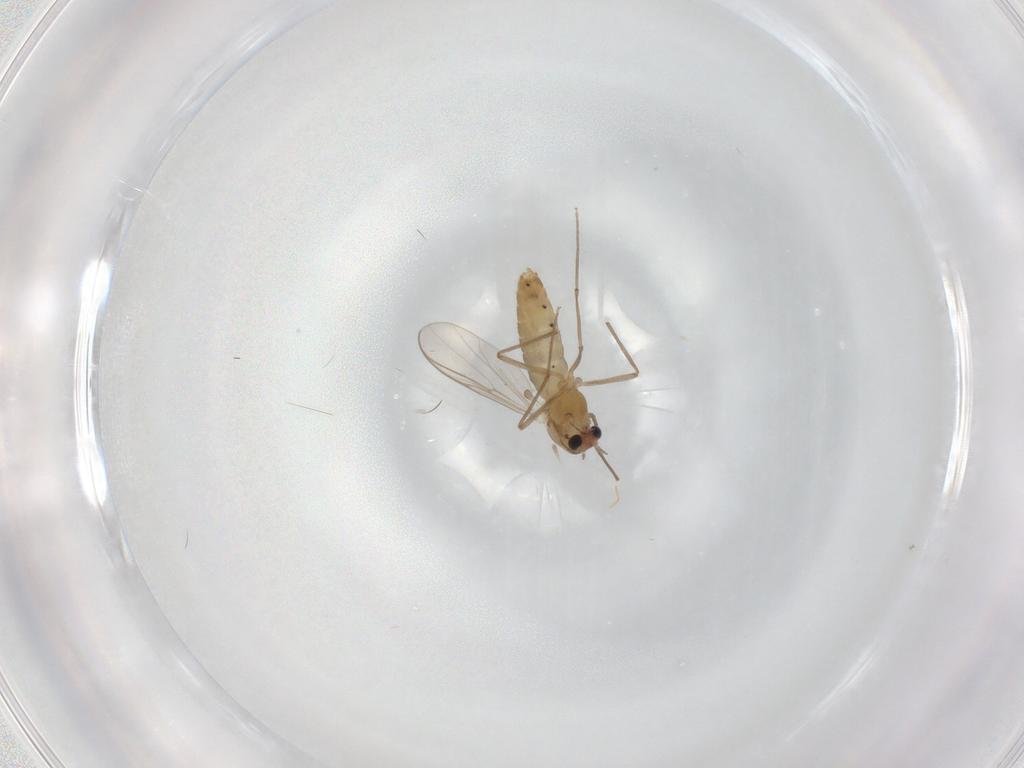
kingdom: Animalia
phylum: Arthropoda
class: Insecta
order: Diptera
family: Chironomidae
